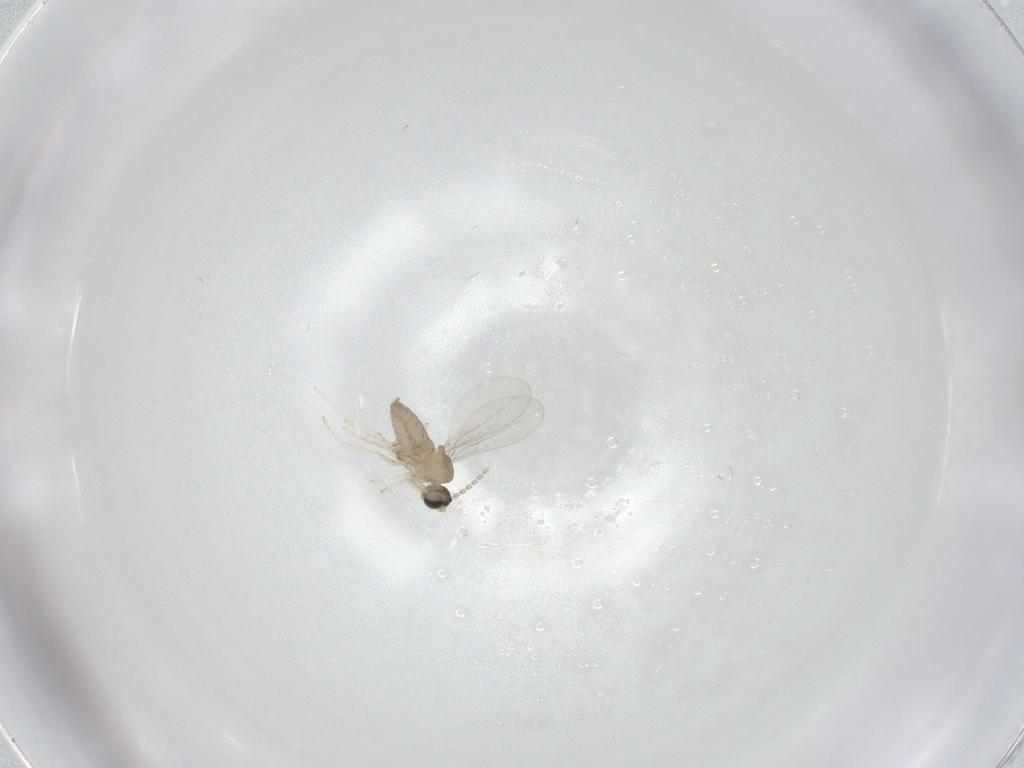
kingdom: Animalia
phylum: Arthropoda
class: Insecta
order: Diptera
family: Cecidomyiidae
